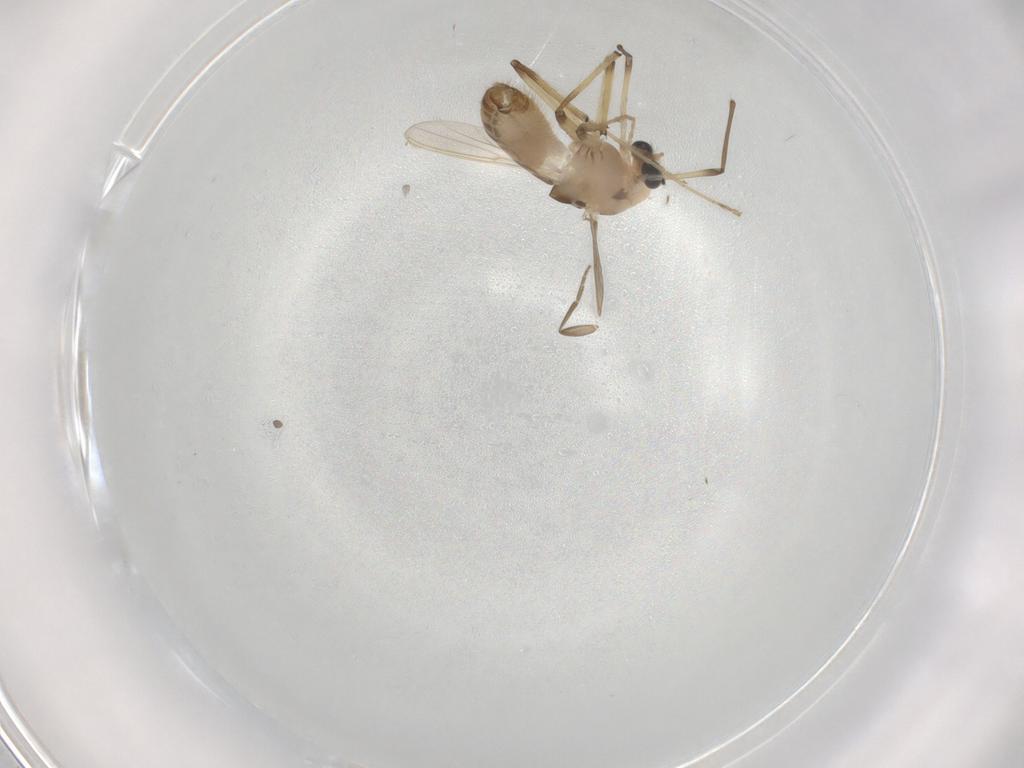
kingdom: Animalia
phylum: Arthropoda
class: Insecta
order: Diptera
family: Chironomidae
